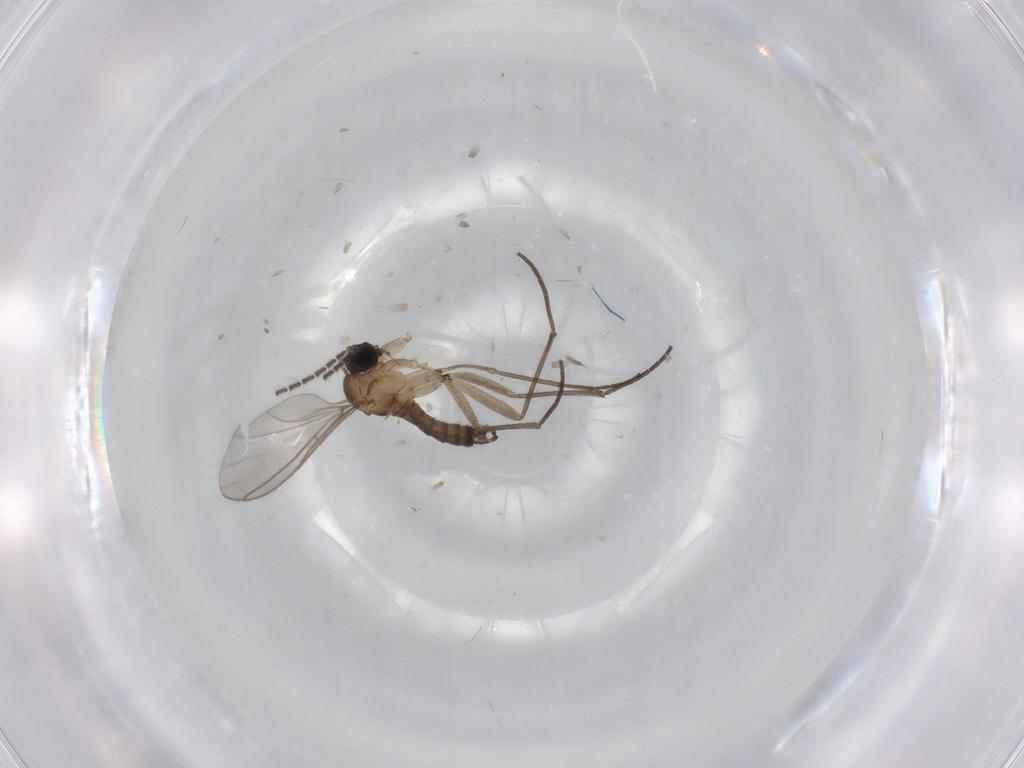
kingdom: Animalia
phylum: Arthropoda
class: Insecta
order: Diptera
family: Sciaridae
